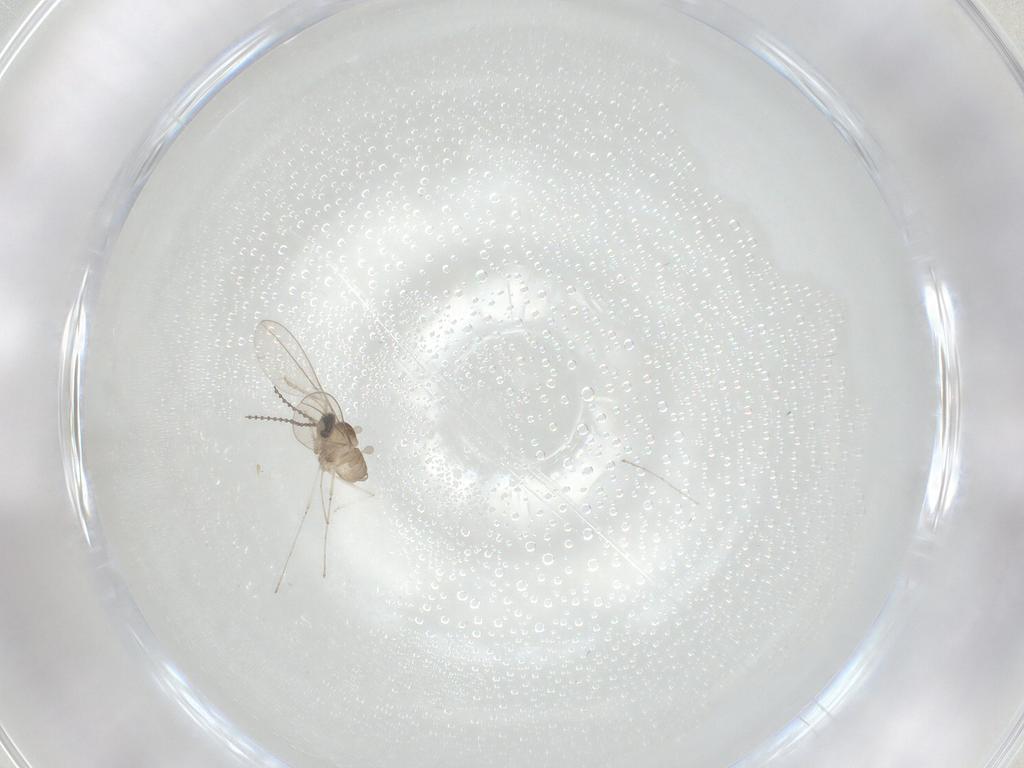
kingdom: Animalia
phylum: Arthropoda
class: Insecta
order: Diptera
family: Cecidomyiidae
